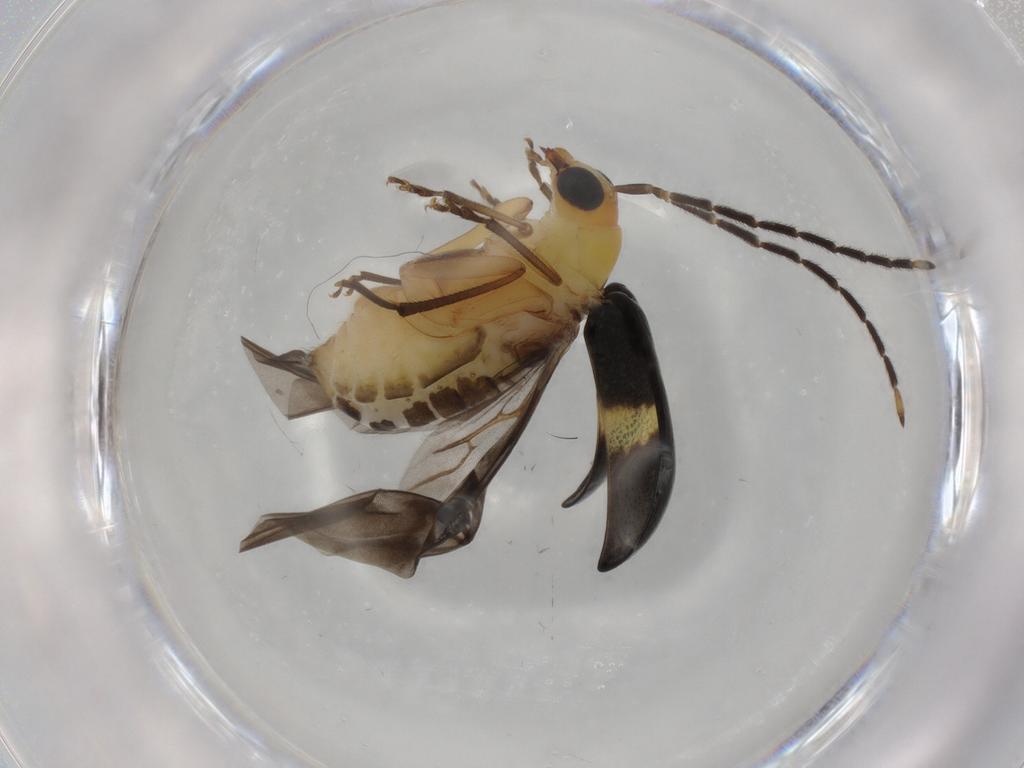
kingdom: Animalia
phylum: Arthropoda
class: Insecta
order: Coleoptera
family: Chrysomelidae
